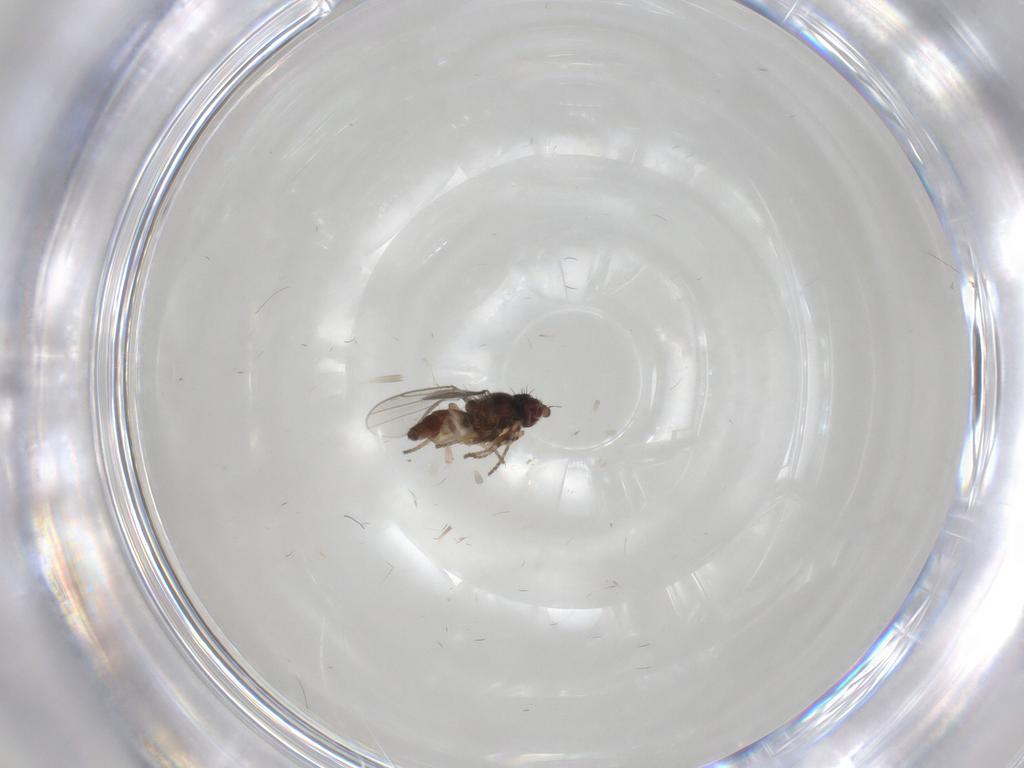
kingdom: Animalia
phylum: Arthropoda
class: Insecta
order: Diptera
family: Chloropidae
